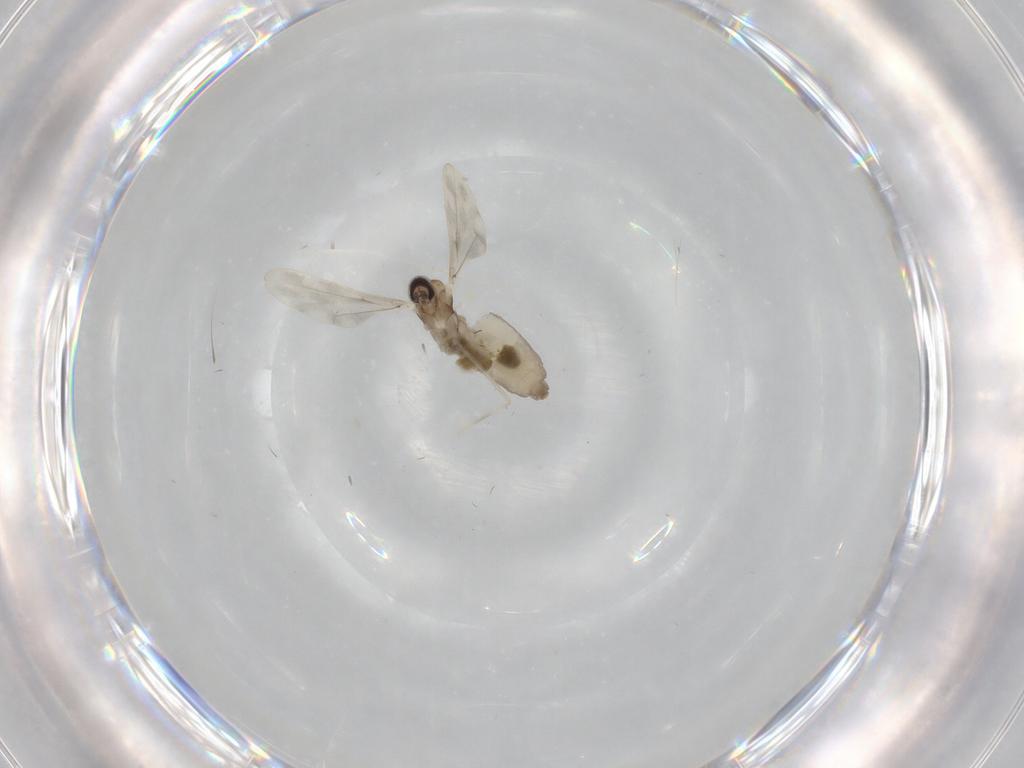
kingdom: Animalia
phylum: Arthropoda
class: Insecta
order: Diptera
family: Cecidomyiidae
